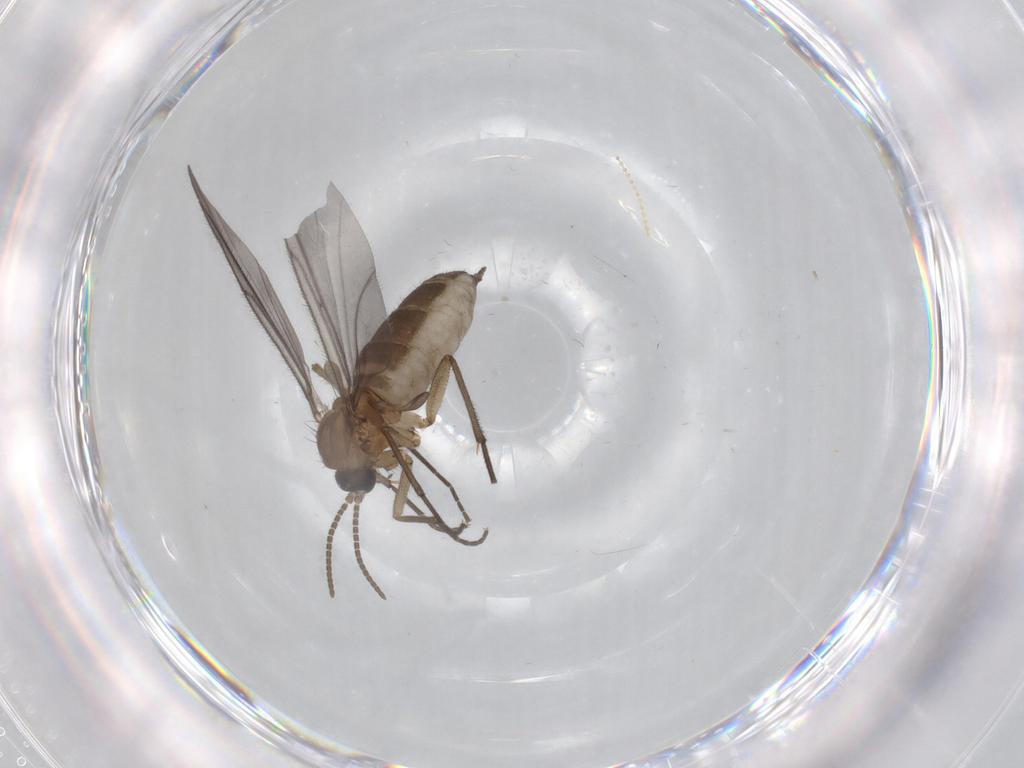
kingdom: Animalia
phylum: Arthropoda
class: Insecta
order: Diptera
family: Cecidomyiidae
